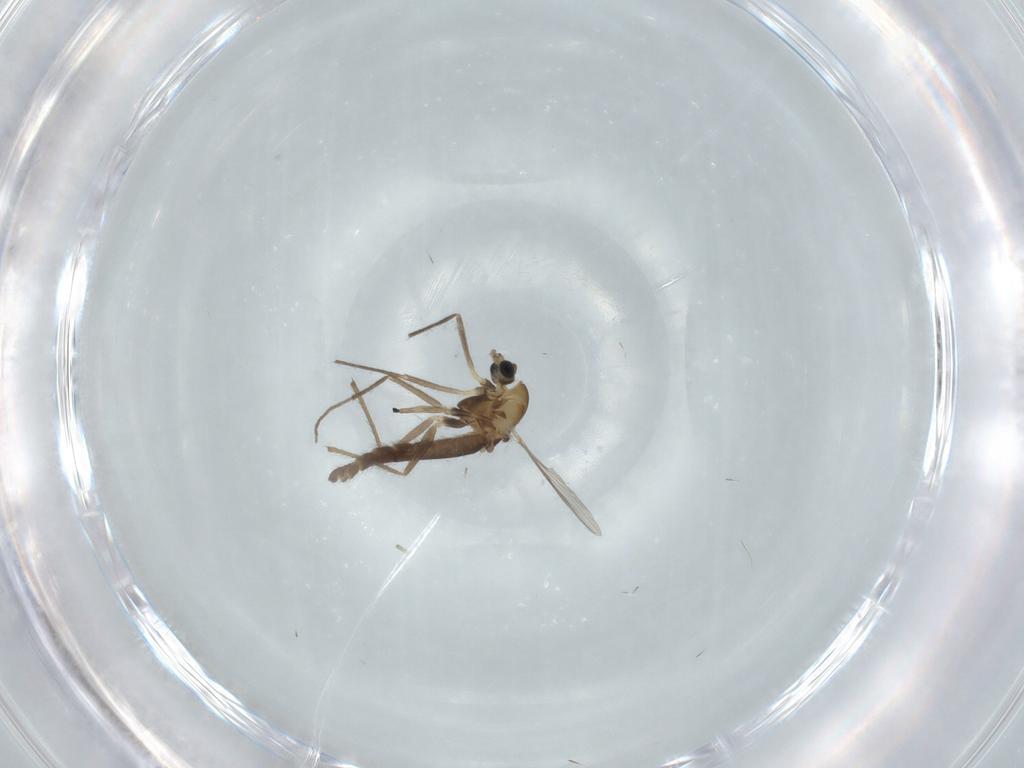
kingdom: Animalia
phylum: Arthropoda
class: Insecta
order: Diptera
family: Chironomidae
